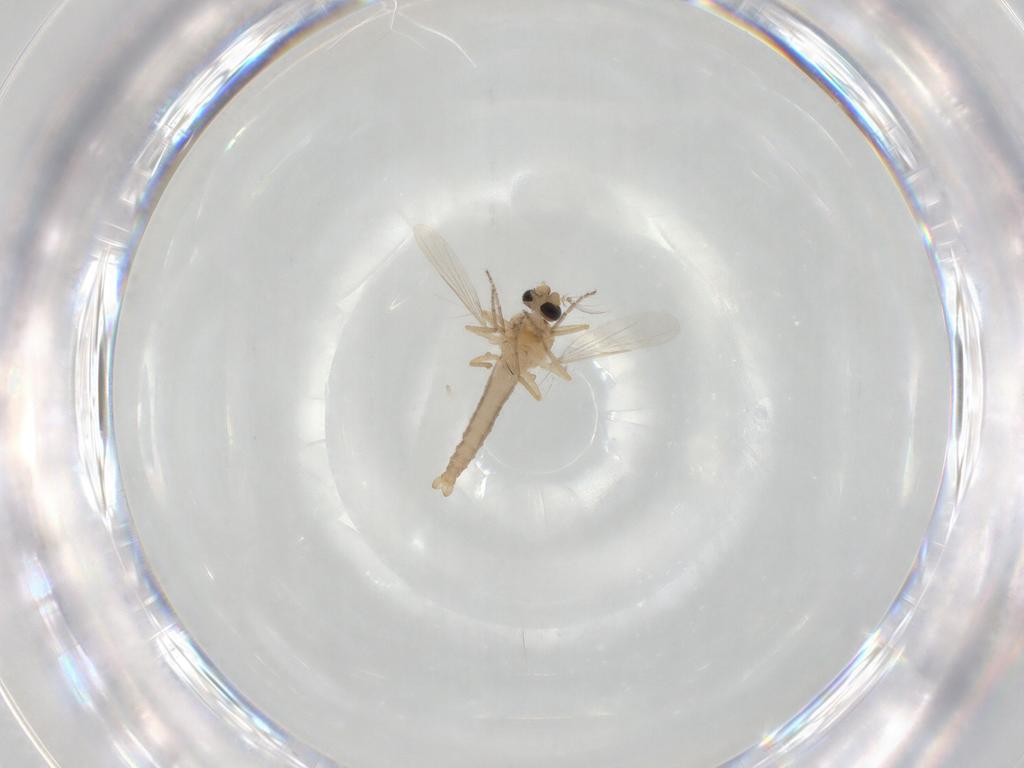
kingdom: Animalia
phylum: Arthropoda
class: Insecta
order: Diptera
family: Ceratopogonidae
